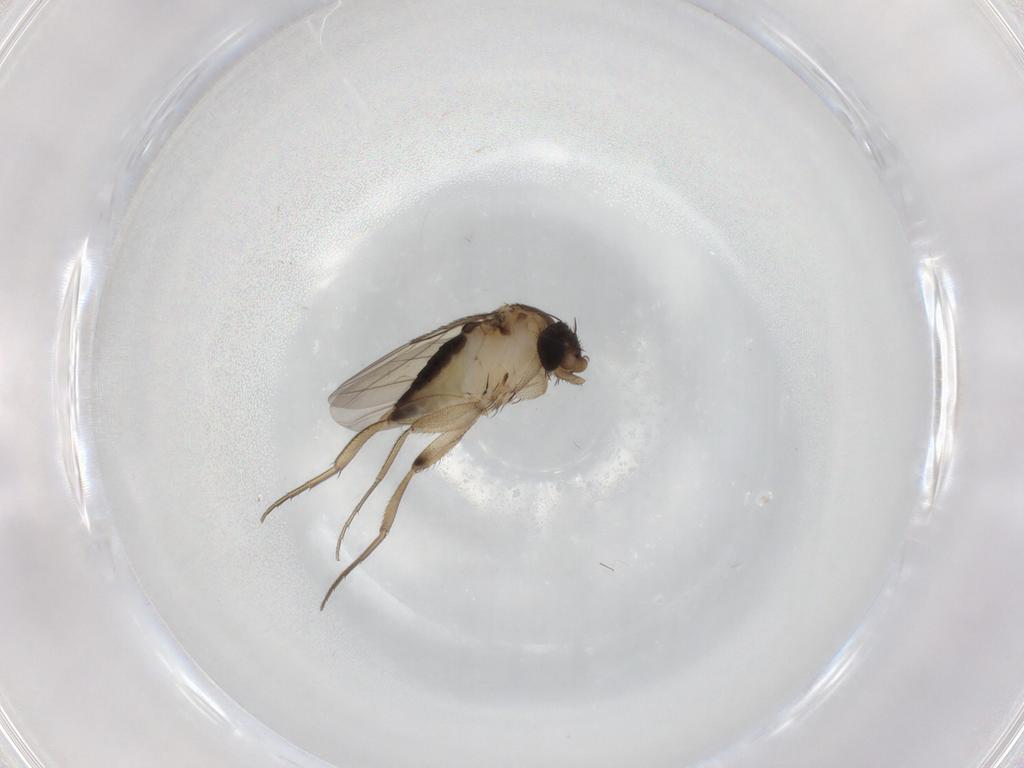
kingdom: Animalia
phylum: Arthropoda
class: Insecta
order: Diptera
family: Phoridae
